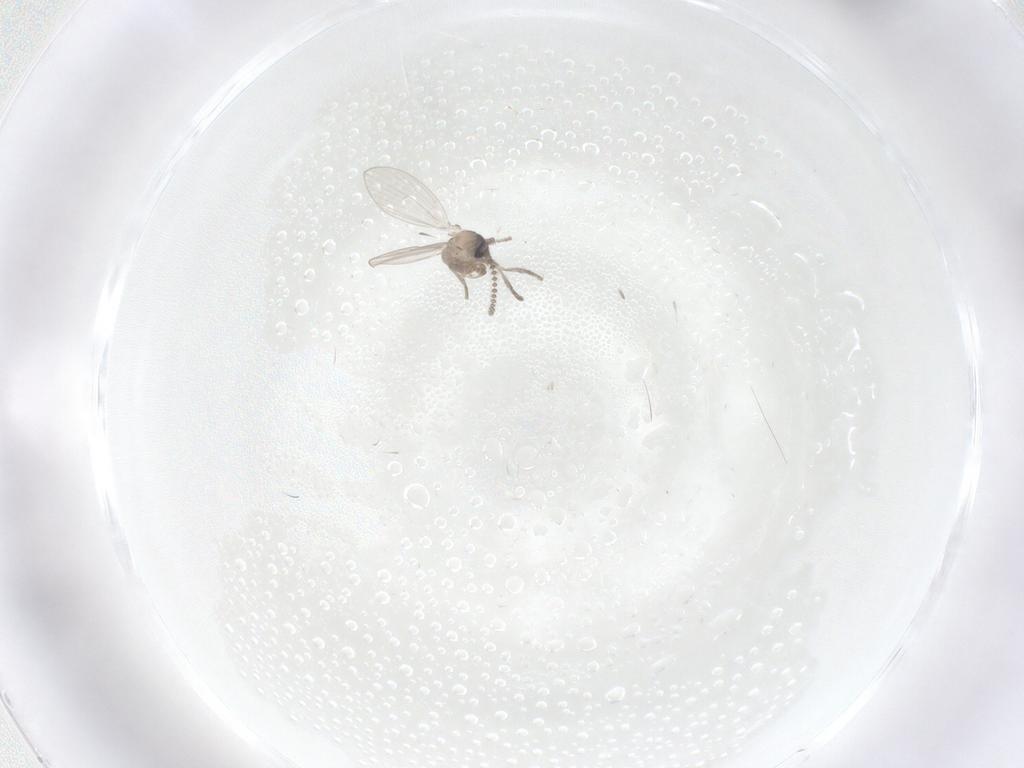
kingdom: Animalia
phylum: Arthropoda
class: Insecta
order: Diptera
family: Psychodidae
